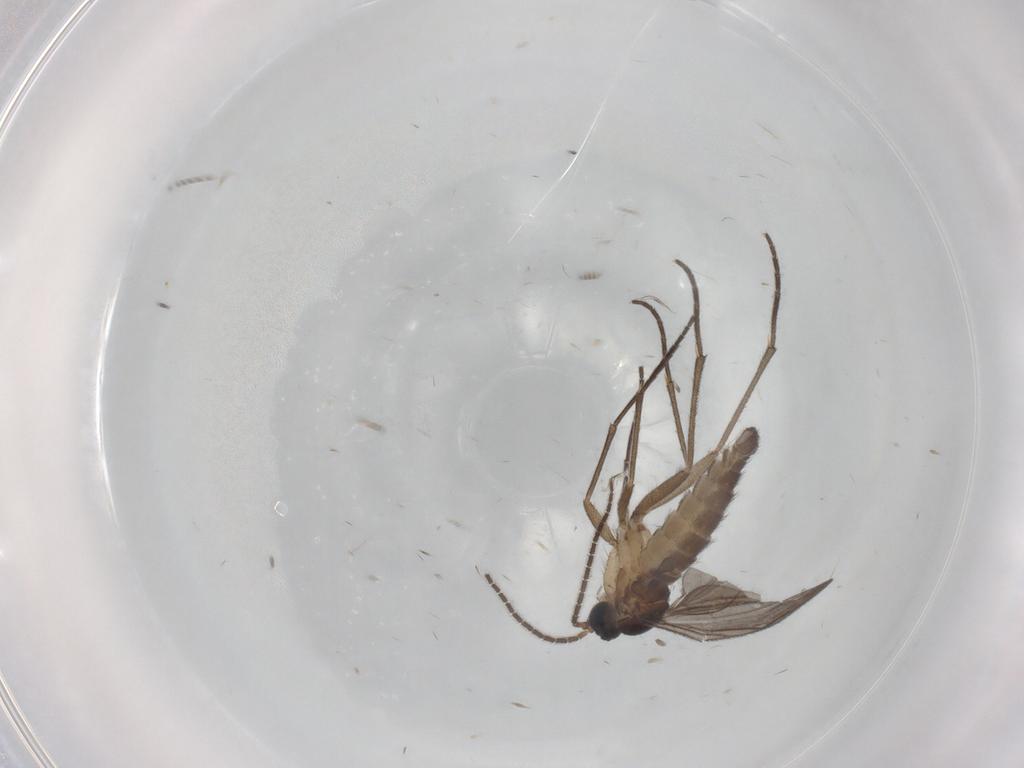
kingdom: Animalia
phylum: Arthropoda
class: Insecta
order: Diptera
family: Sciaridae
